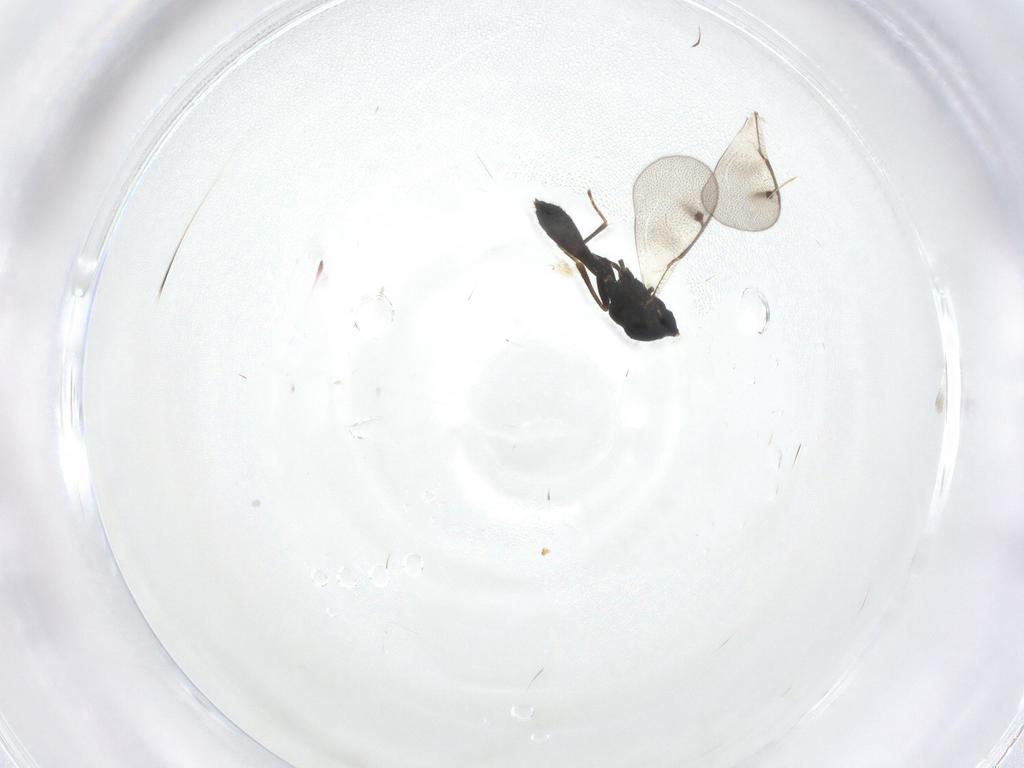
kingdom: Animalia
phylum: Arthropoda
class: Insecta
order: Hymenoptera
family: Pteromalidae
